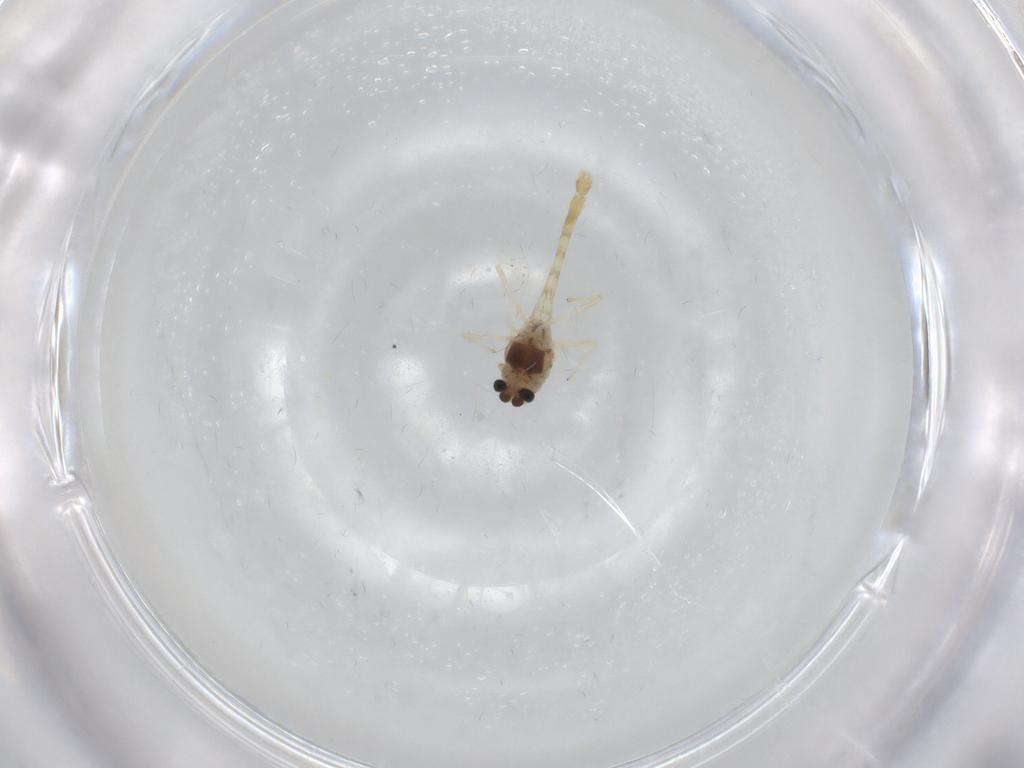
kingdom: Animalia
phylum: Arthropoda
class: Insecta
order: Diptera
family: Chironomidae
